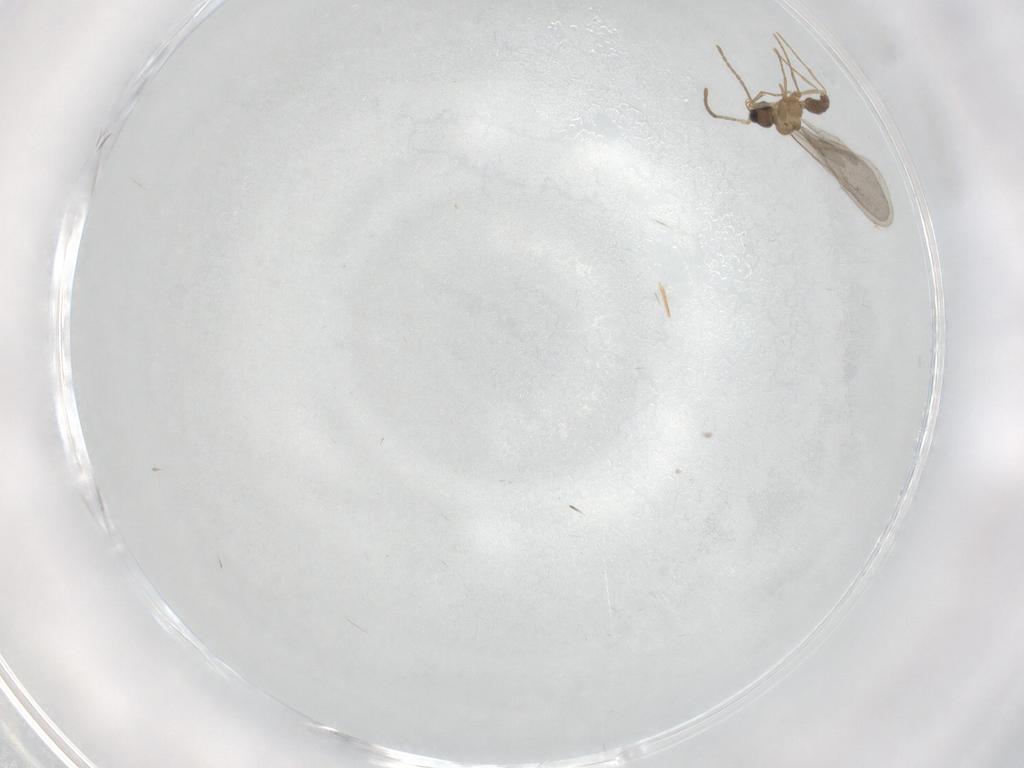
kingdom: Animalia
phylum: Arthropoda
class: Insecta
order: Hymenoptera
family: Formicidae
